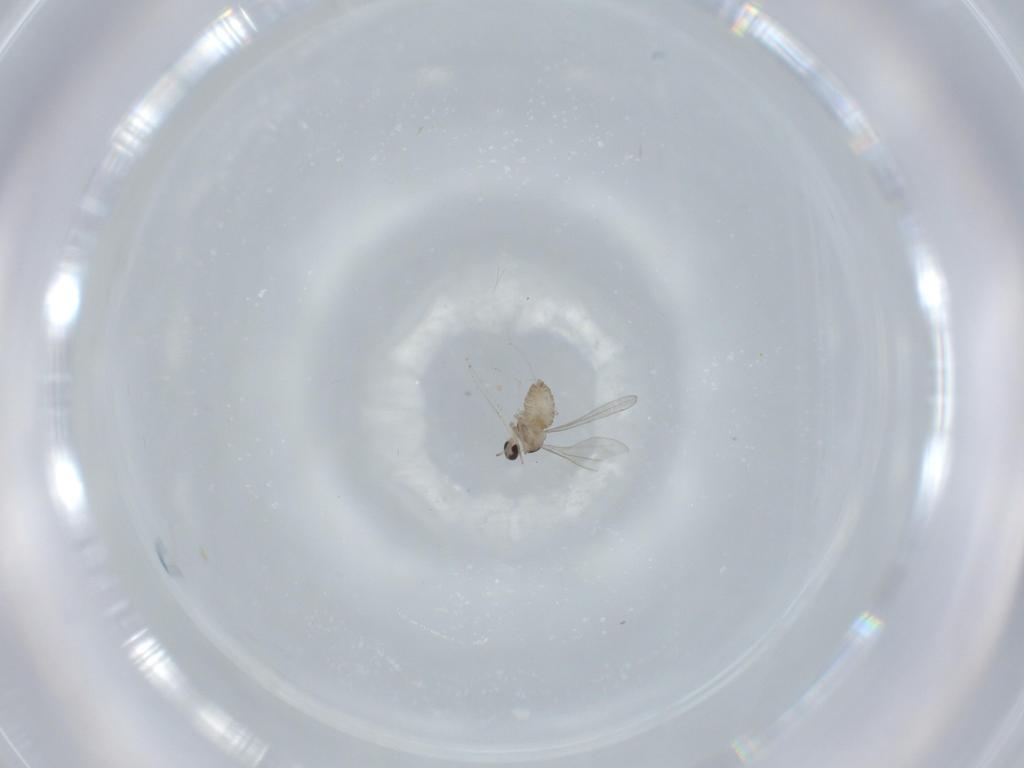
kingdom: Animalia
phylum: Arthropoda
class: Insecta
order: Diptera
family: Cecidomyiidae
